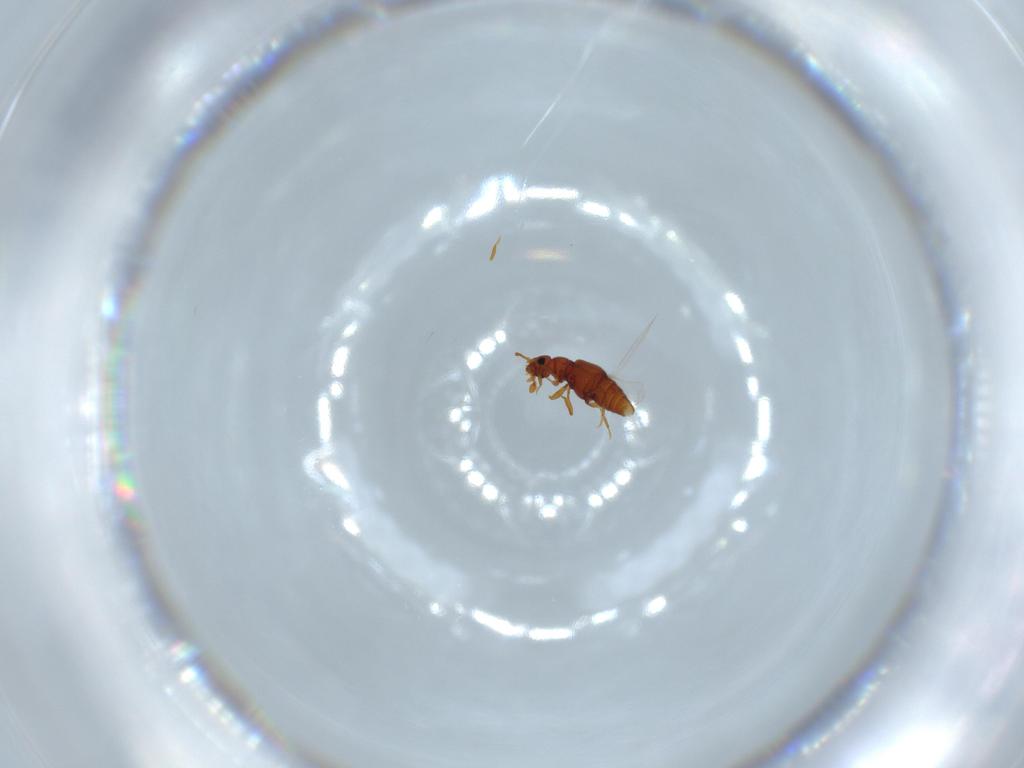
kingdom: Animalia
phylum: Arthropoda
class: Insecta
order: Coleoptera
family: Staphylinidae
